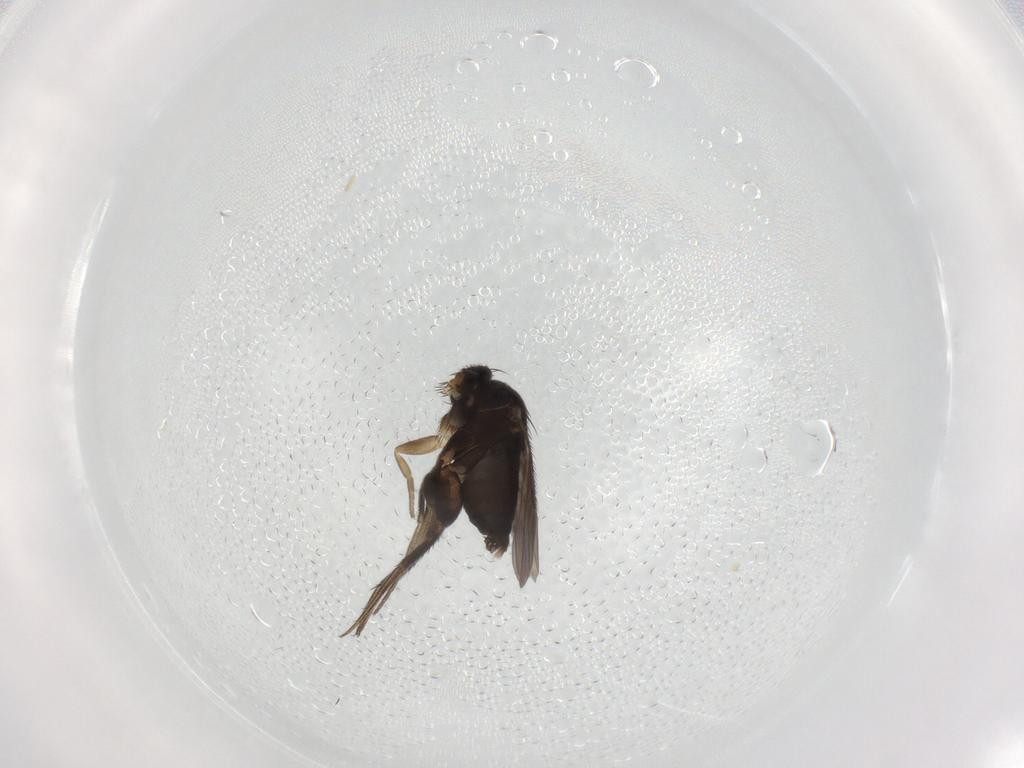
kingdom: Animalia
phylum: Arthropoda
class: Insecta
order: Diptera
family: Phoridae
